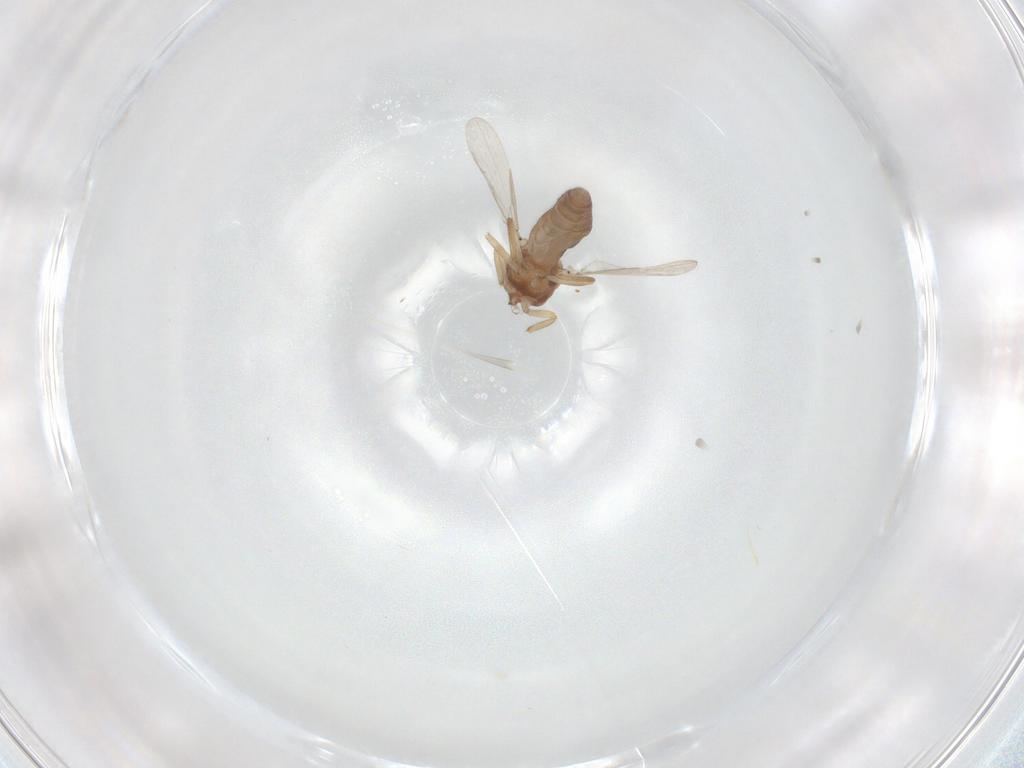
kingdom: Animalia
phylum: Arthropoda
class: Insecta
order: Diptera
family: Ceratopogonidae
